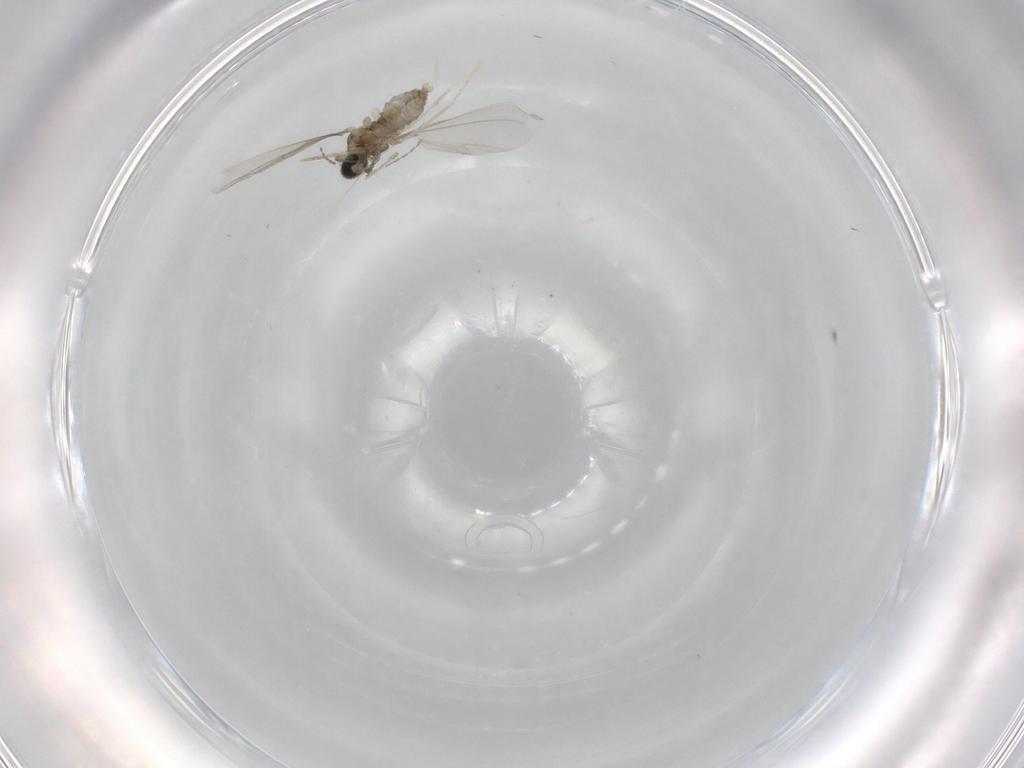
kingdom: Animalia
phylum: Arthropoda
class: Insecta
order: Diptera
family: Cecidomyiidae
